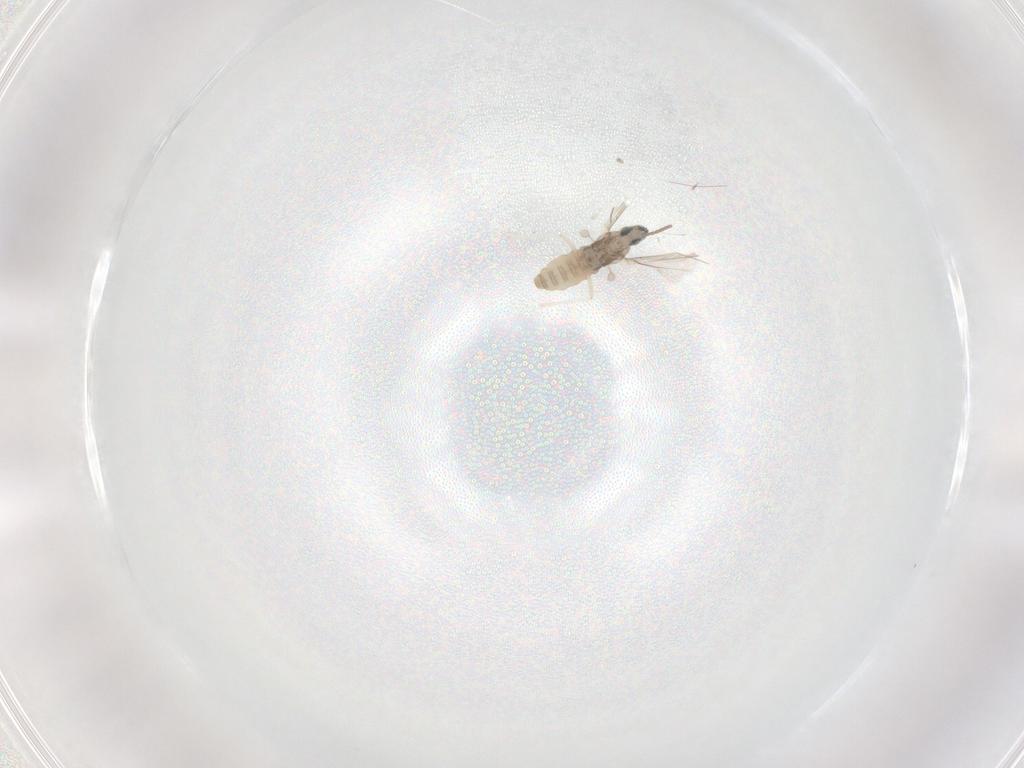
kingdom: Animalia
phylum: Arthropoda
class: Insecta
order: Diptera
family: Cecidomyiidae
